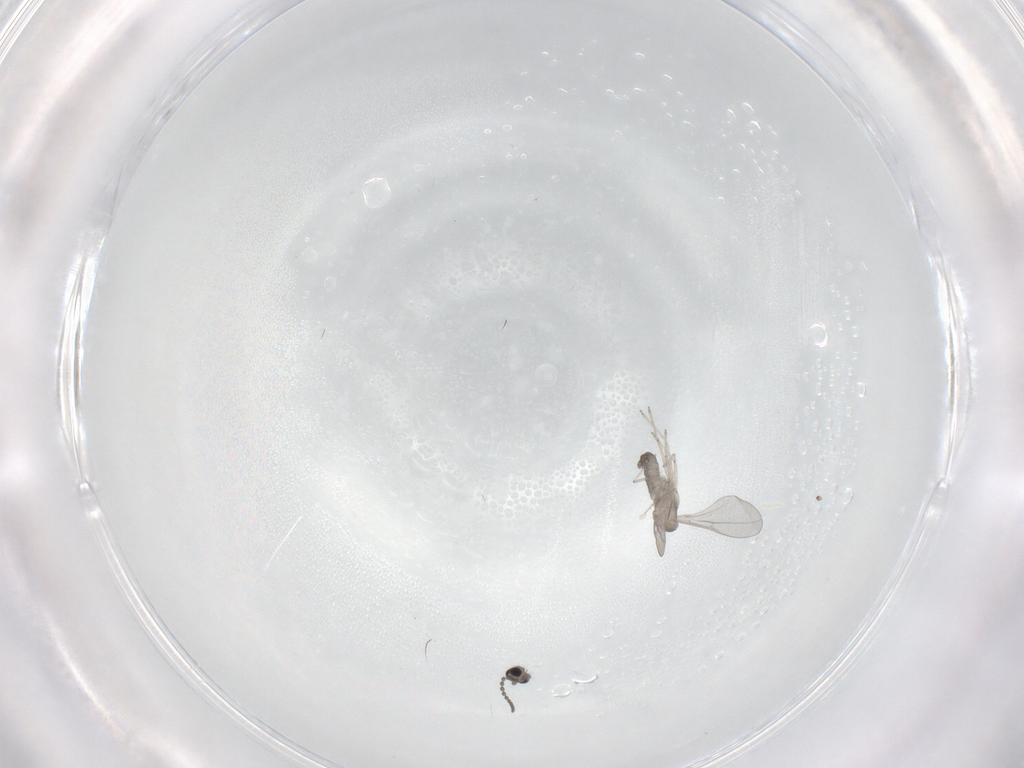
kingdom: Animalia
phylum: Arthropoda
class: Insecta
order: Diptera
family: Cecidomyiidae
